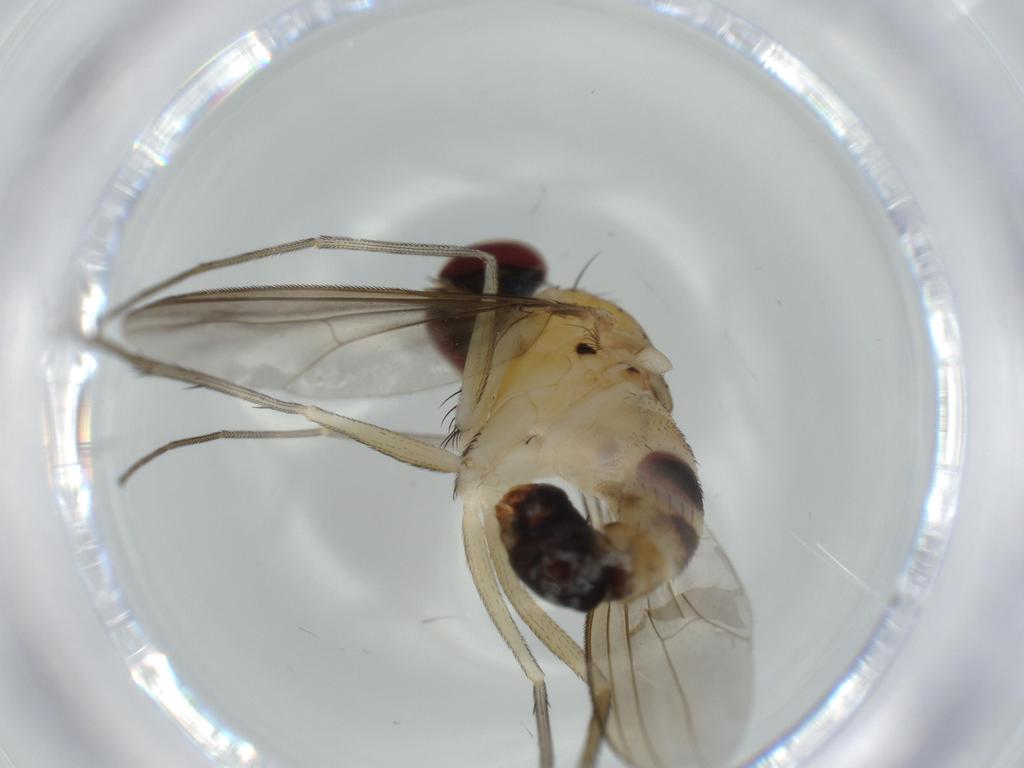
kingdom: Animalia
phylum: Arthropoda
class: Insecta
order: Diptera
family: Dolichopodidae
